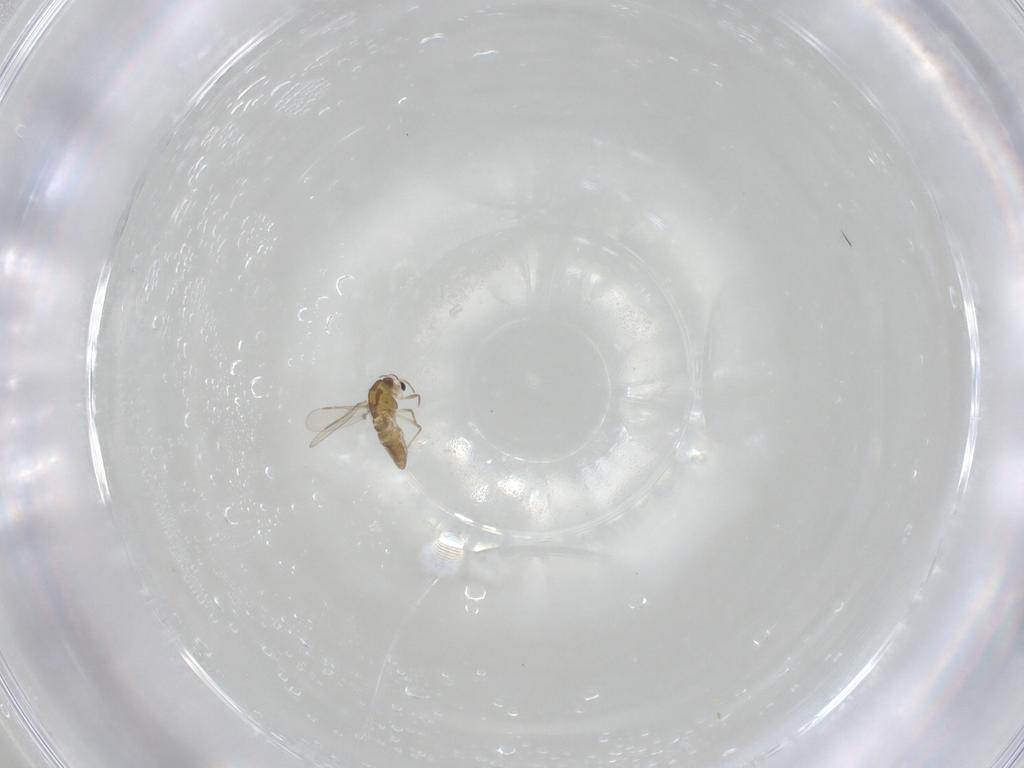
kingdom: Animalia
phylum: Arthropoda
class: Insecta
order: Diptera
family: Chironomidae
